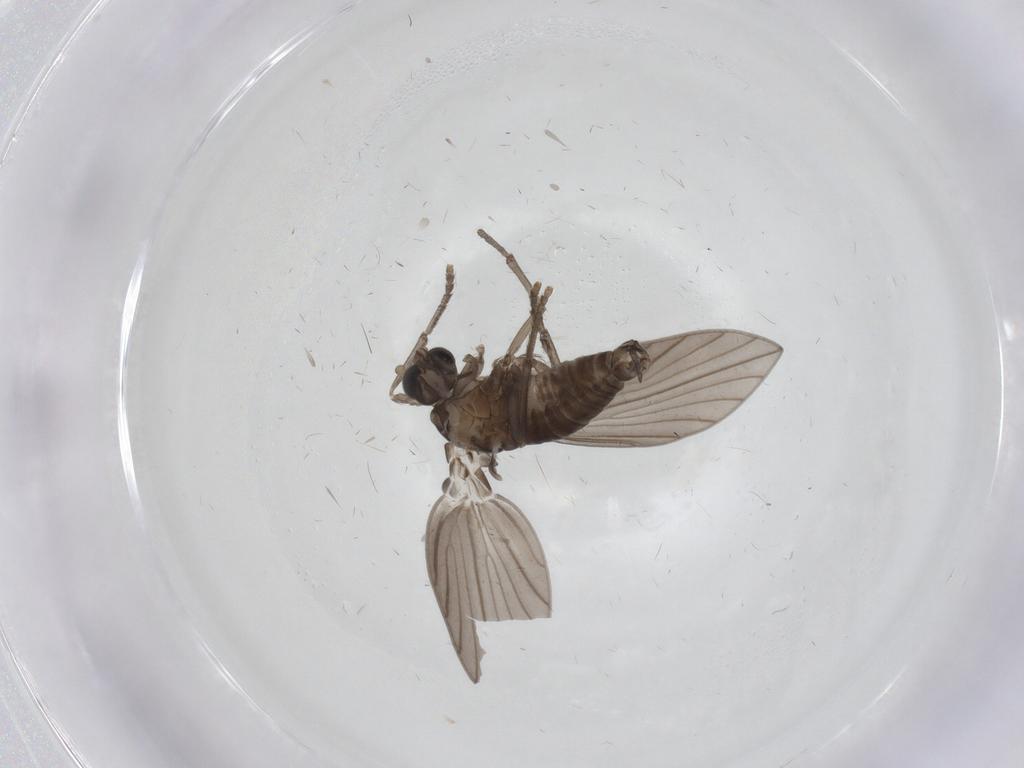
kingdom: Animalia
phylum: Arthropoda
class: Insecta
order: Diptera
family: Psychodidae
